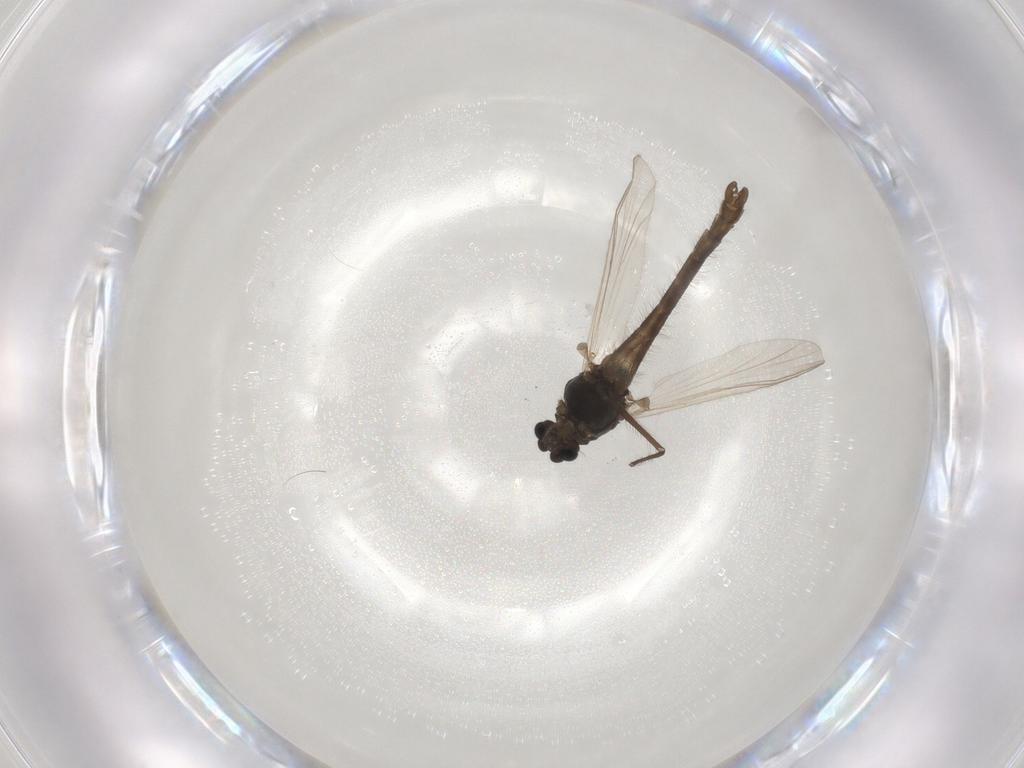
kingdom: Animalia
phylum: Arthropoda
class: Insecta
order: Diptera
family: Chironomidae
